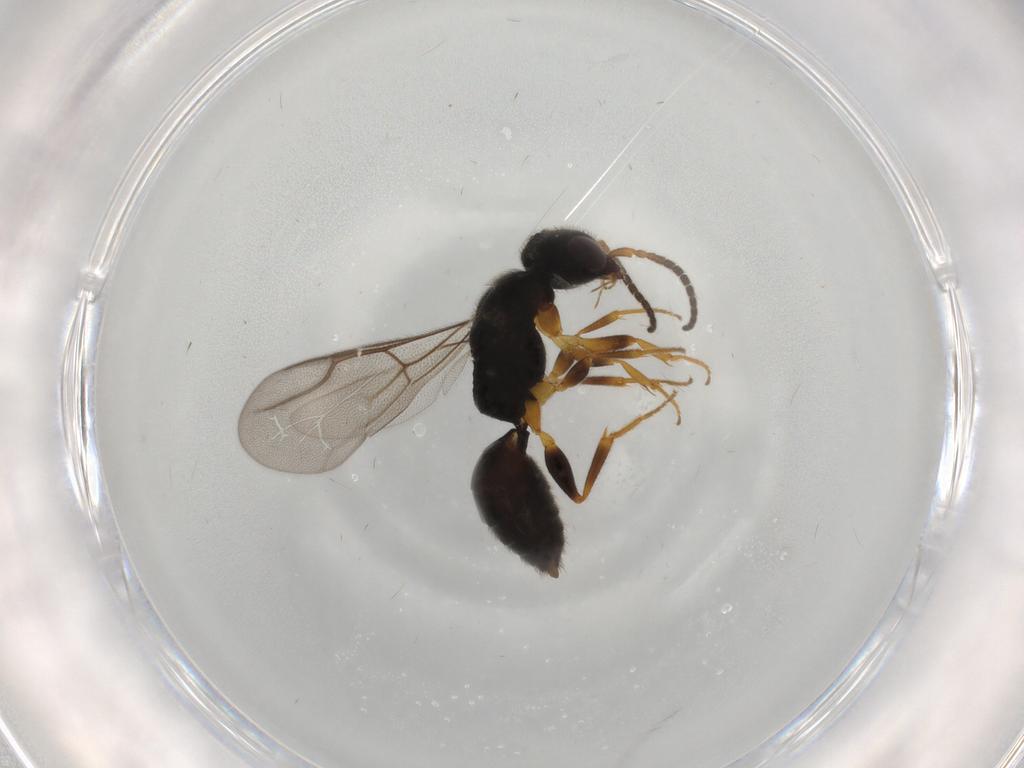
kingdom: Animalia
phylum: Arthropoda
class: Insecta
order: Hymenoptera
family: Bethylidae
